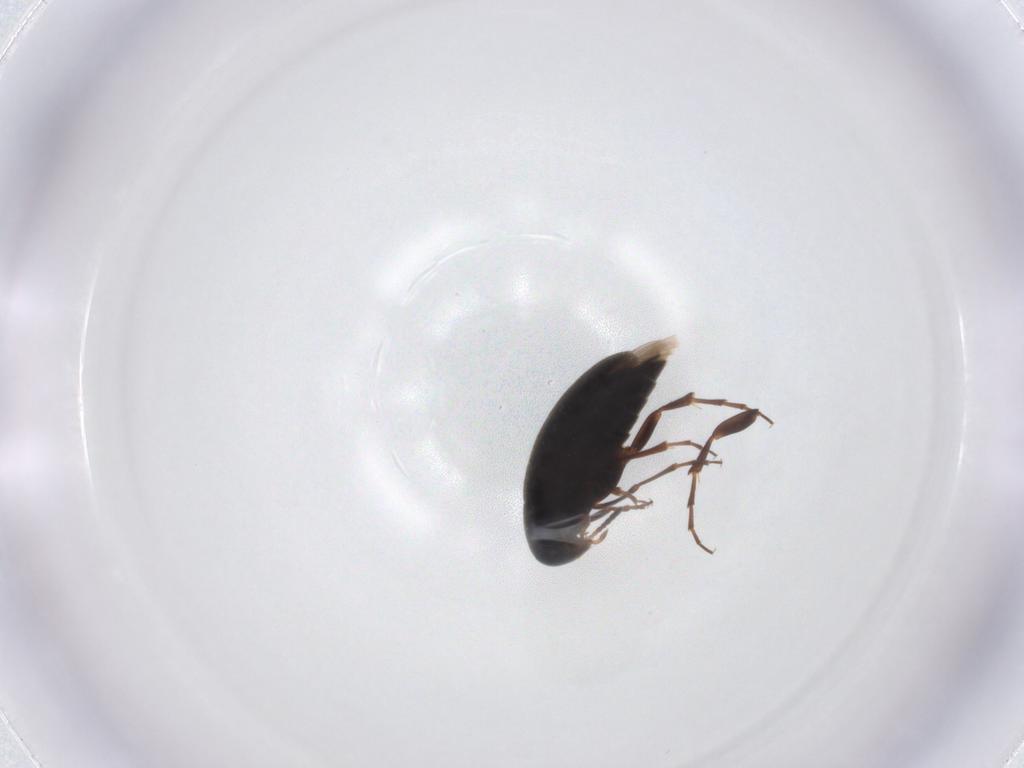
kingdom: Animalia
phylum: Arthropoda
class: Insecta
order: Coleoptera
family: Scraptiidae
